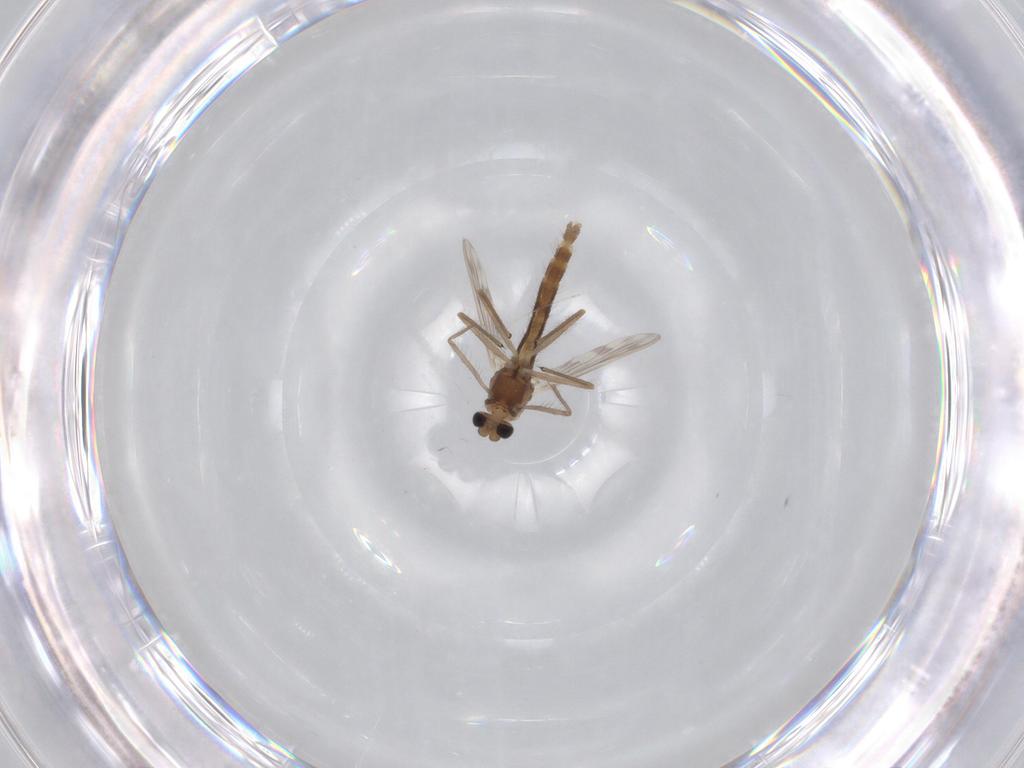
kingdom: Animalia
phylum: Arthropoda
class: Insecta
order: Diptera
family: Chironomidae
